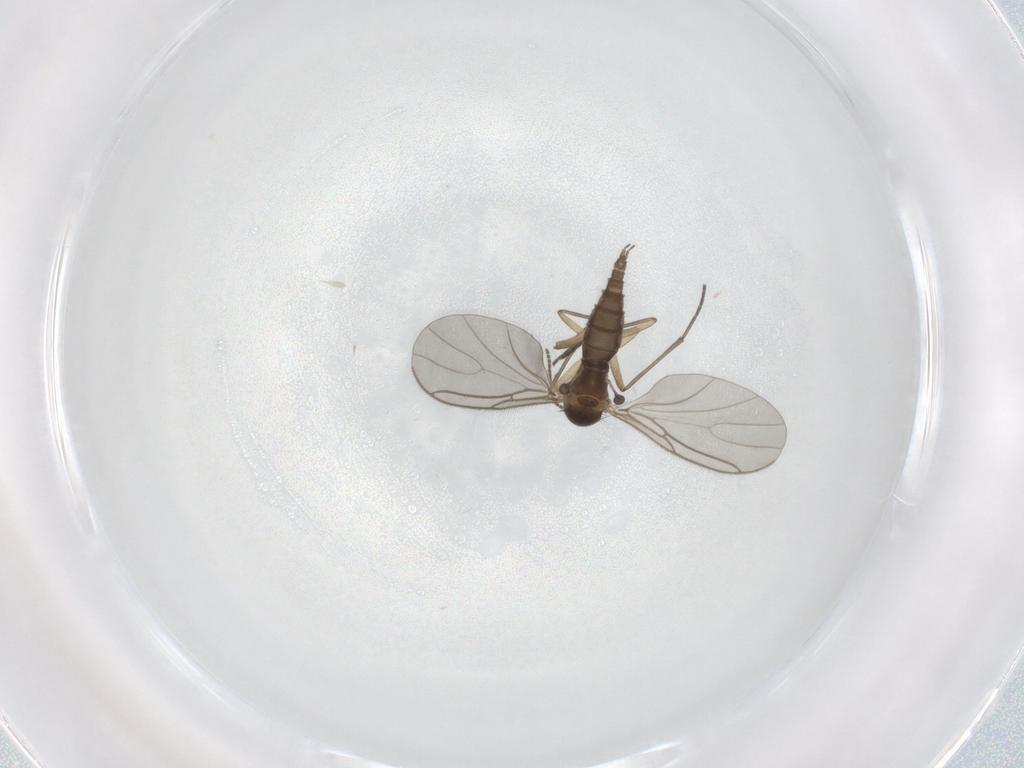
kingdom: Animalia
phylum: Arthropoda
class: Insecta
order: Diptera
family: Sciaridae
